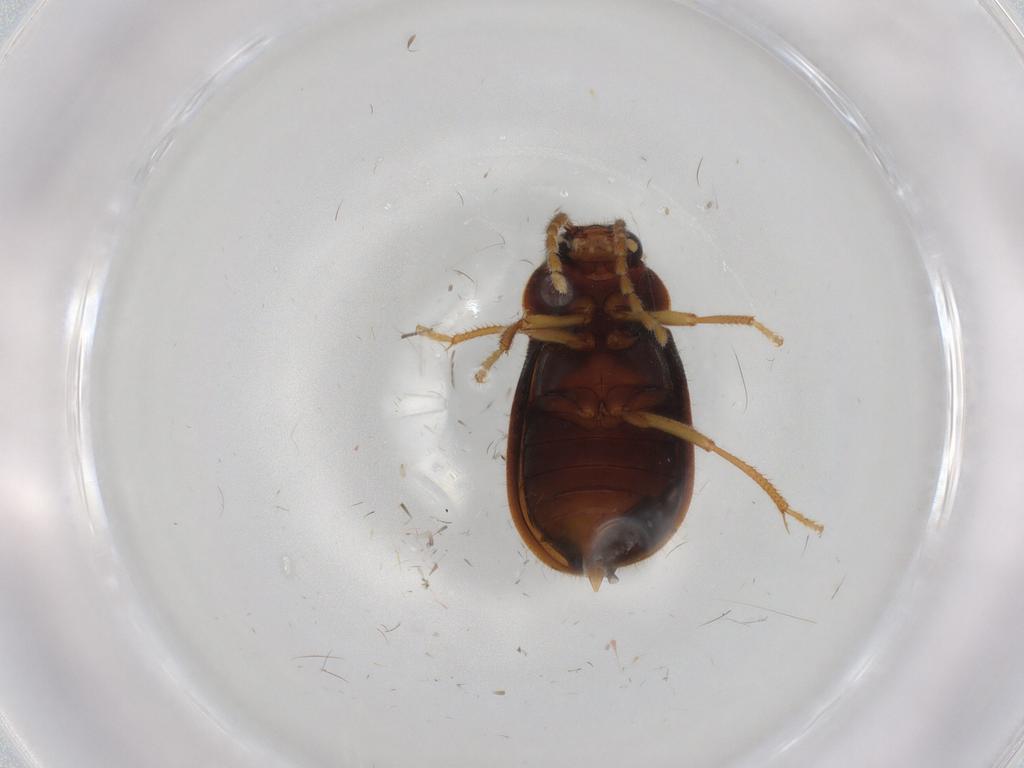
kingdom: Animalia
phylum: Arthropoda
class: Insecta
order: Coleoptera
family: Ptilodactylidae
